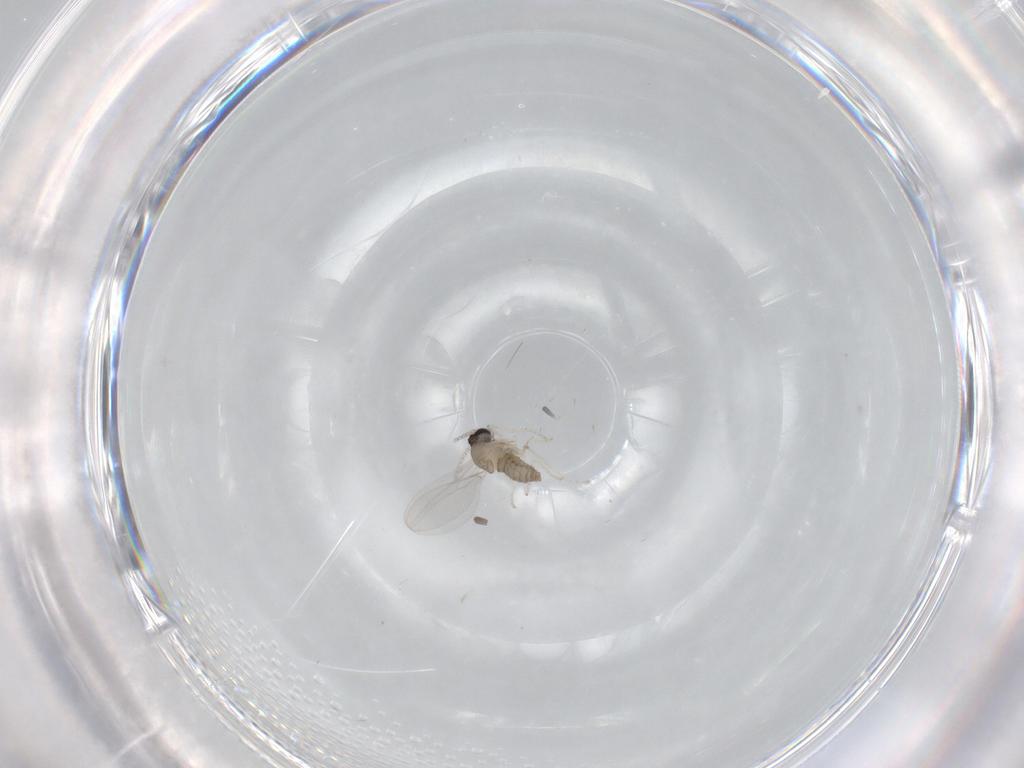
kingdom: Animalia
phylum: Arthropoda
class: Insecta
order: Diptera
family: Cecidomyiidae
